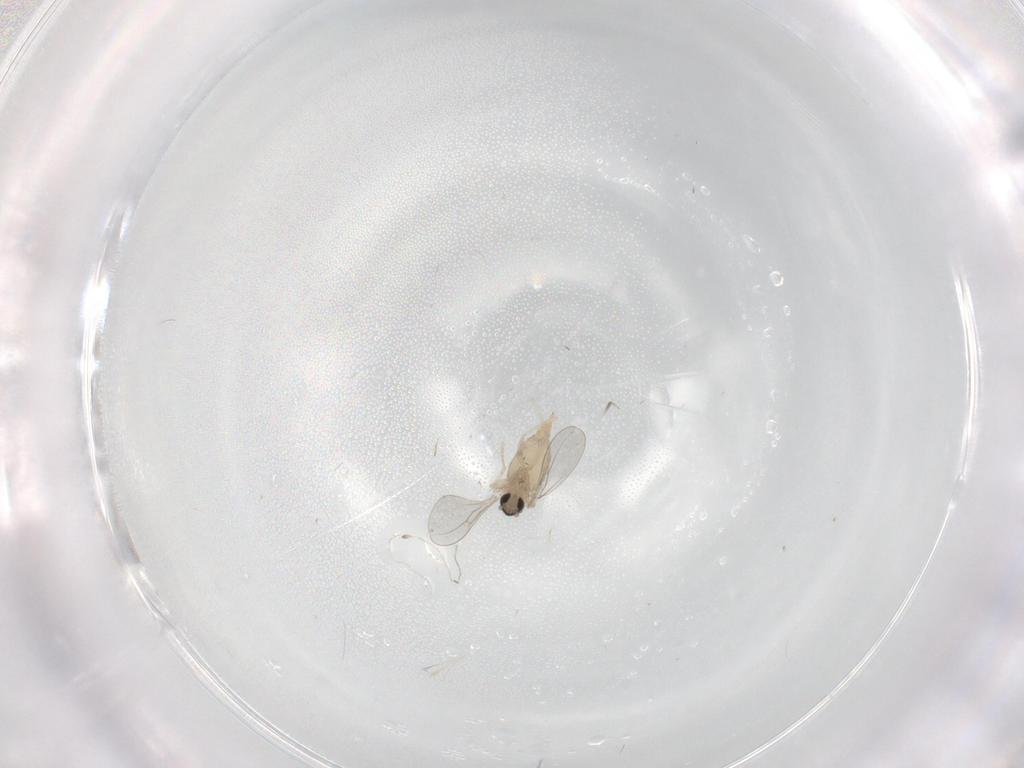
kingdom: Animalia
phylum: Arthropoda
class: Insecta
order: Diptera
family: Cecidomyiidae
